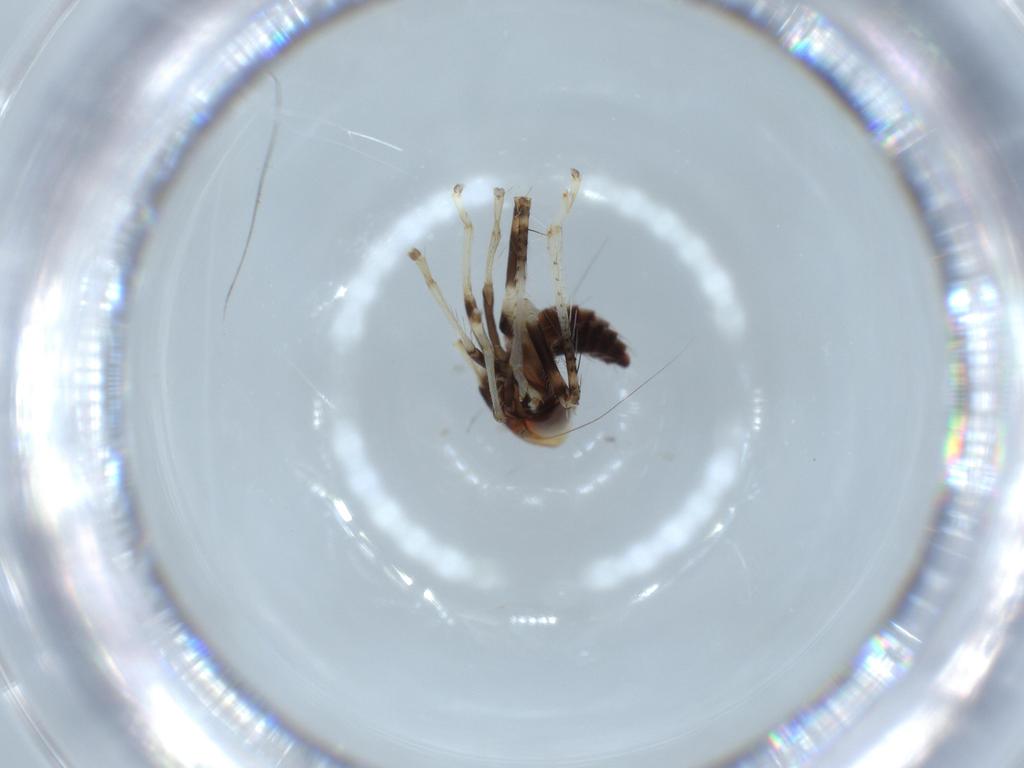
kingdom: Animalia
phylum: Arthropoda
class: Insecta
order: Hemiptera
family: Cicadellidae
